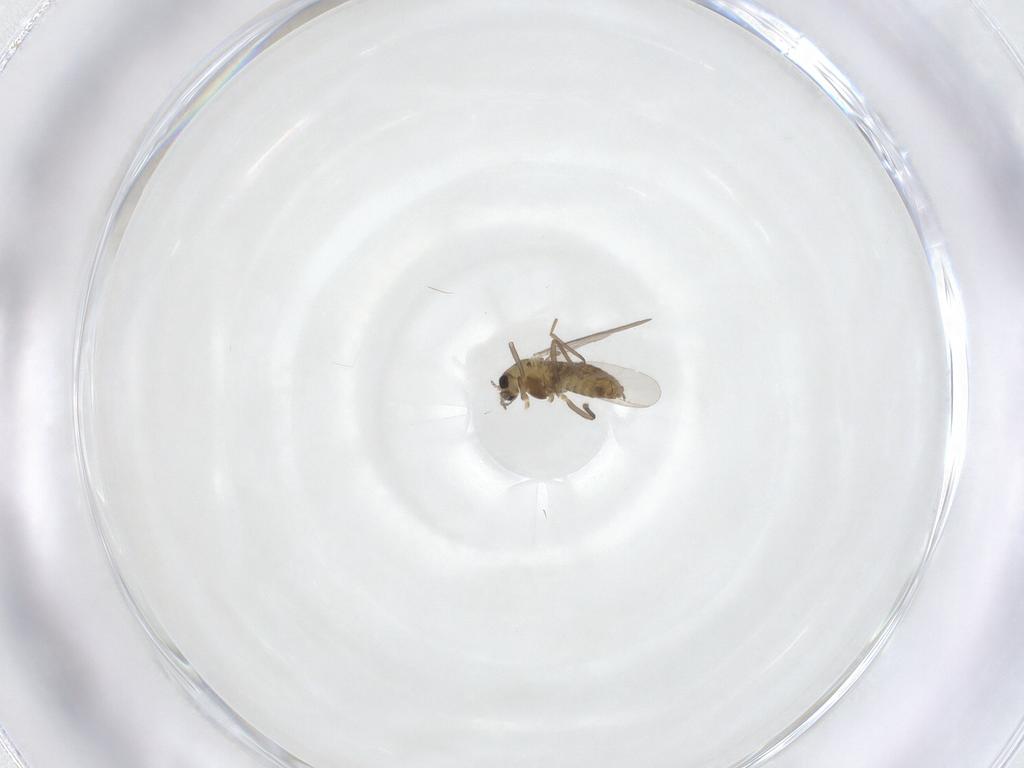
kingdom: Animalia
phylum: Arthropoda
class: Insecta
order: Diptera
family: Chironomidae
